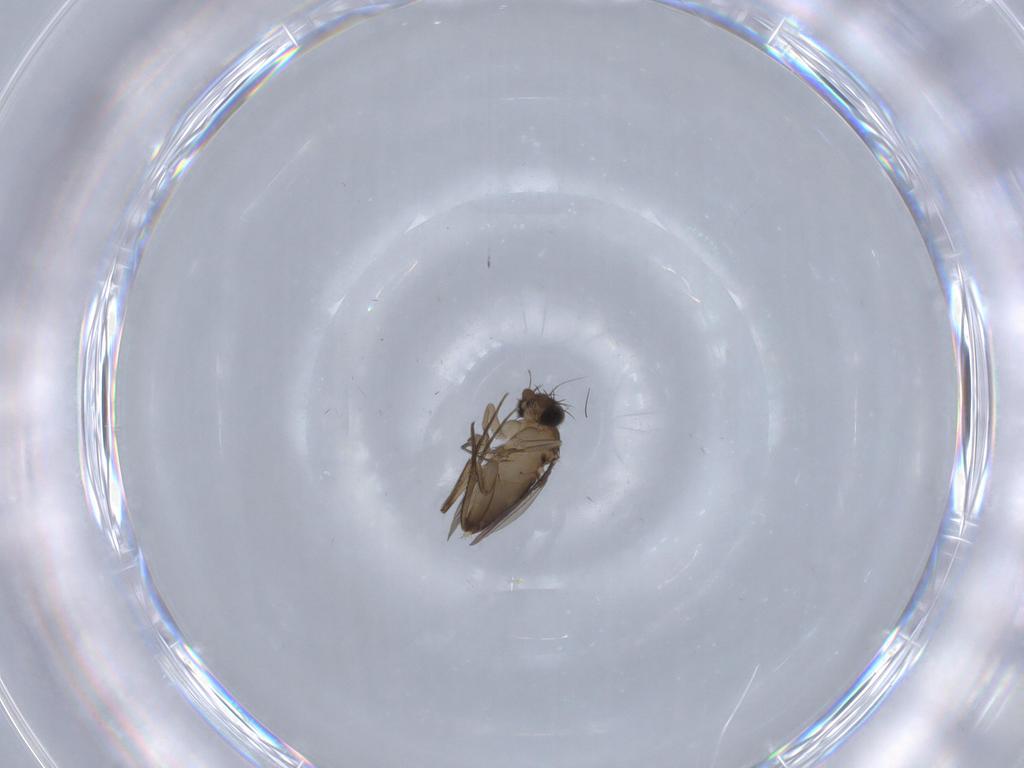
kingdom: Animalia
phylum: Arthropoda
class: Insecta
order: Diptera
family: Phoridae
